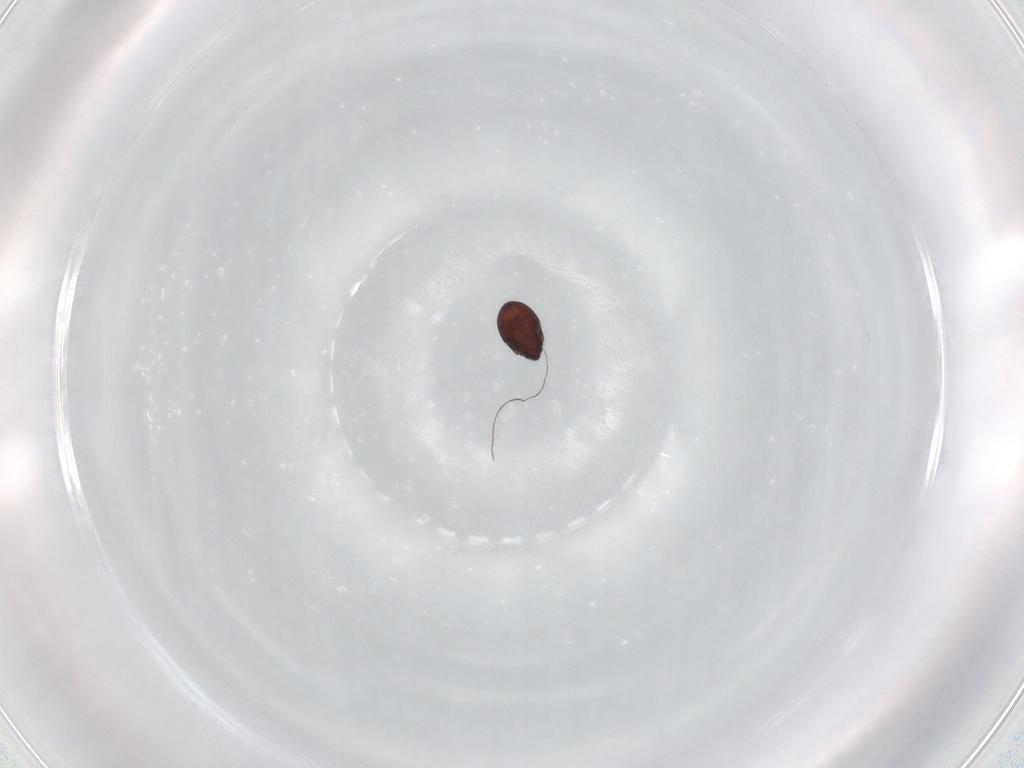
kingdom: Animalia
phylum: Arthropoda
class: Arachnida
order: Sarcoptiformes
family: Punctoribatidae
